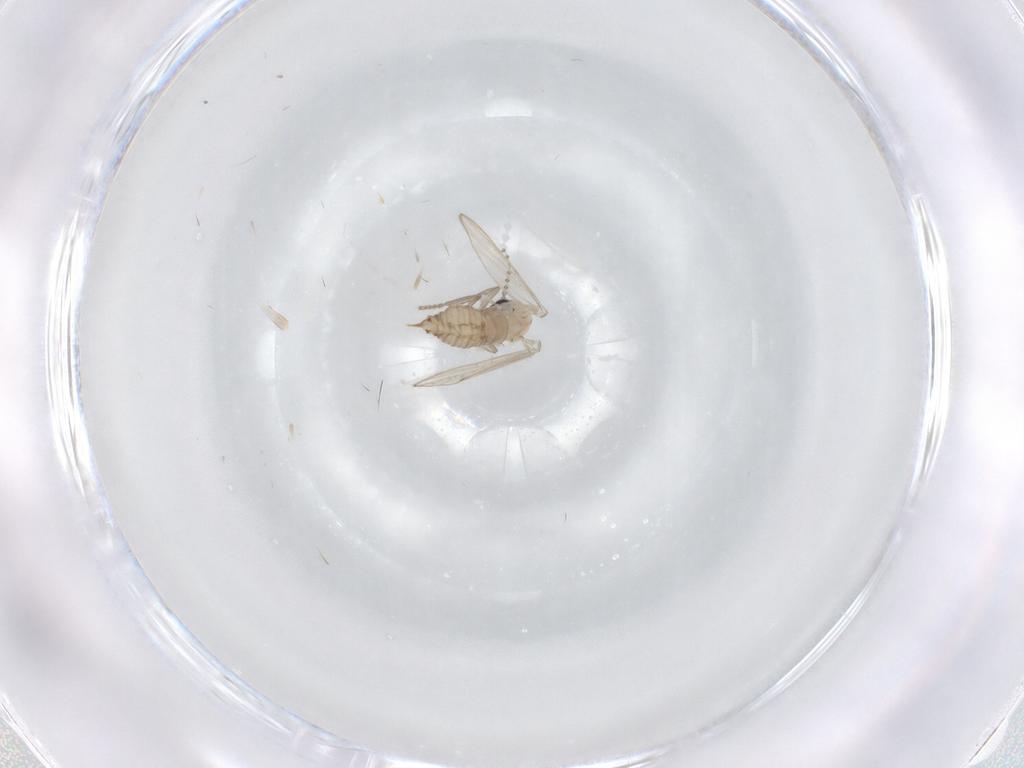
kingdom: Animalia
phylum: Arthropoda
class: Insecta
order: Diptera
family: Psychodidae
